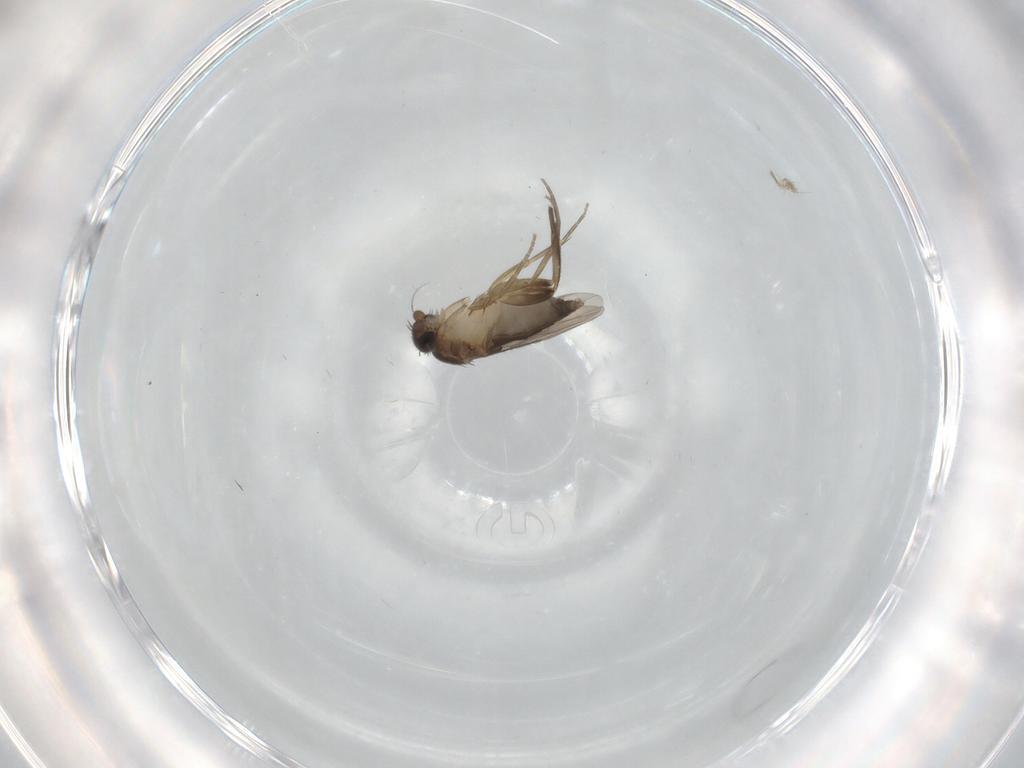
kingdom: Animalia
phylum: Arthropoda
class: Insecta
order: Diptera
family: Phoridae
